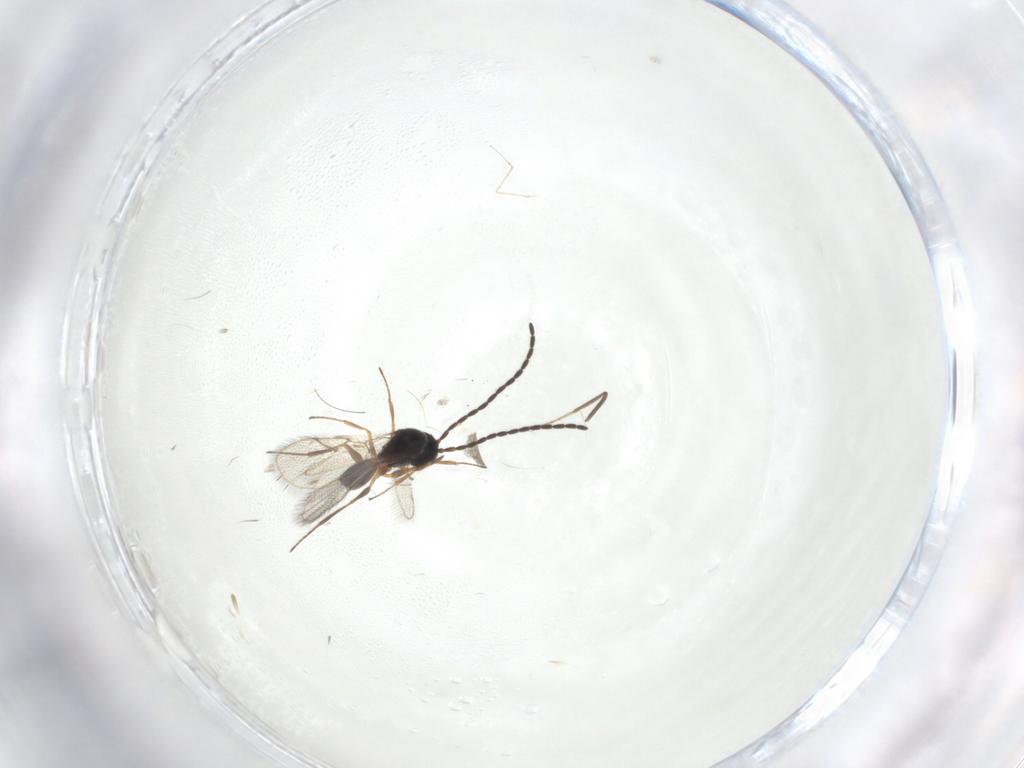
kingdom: Animalia
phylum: Arthropoda
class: Insecta
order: Hymenoptera
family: Figitidae
